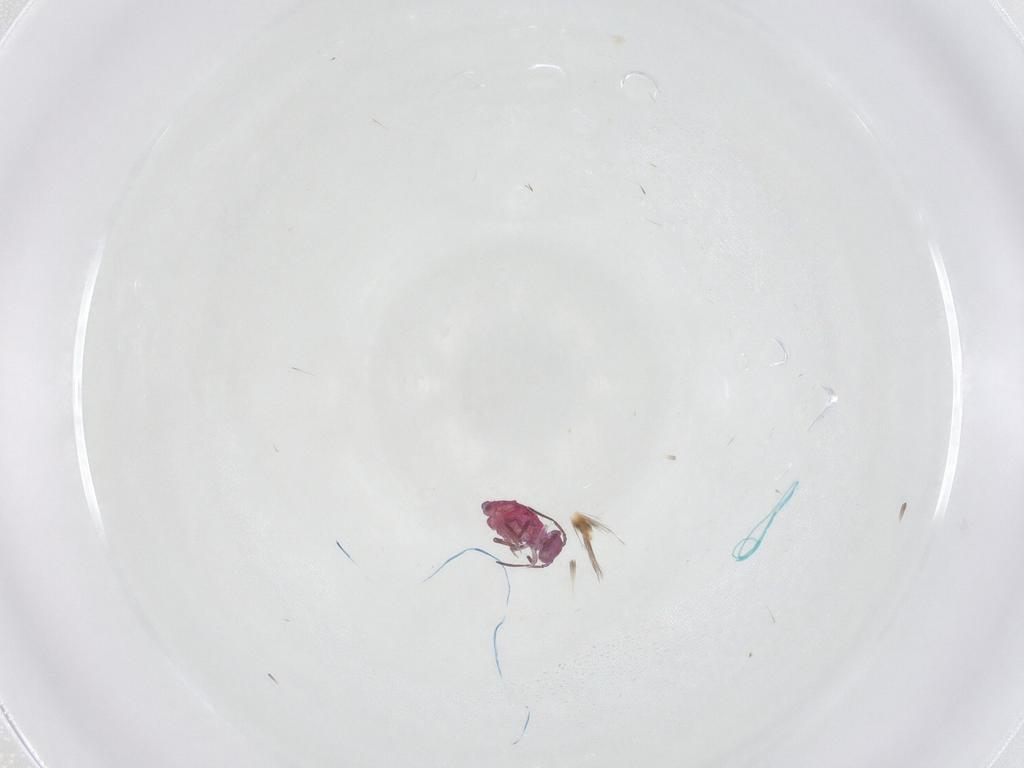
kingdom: Animalia
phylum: Arthropoda
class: Collembola
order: Symphypleona
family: Sminthuridae
